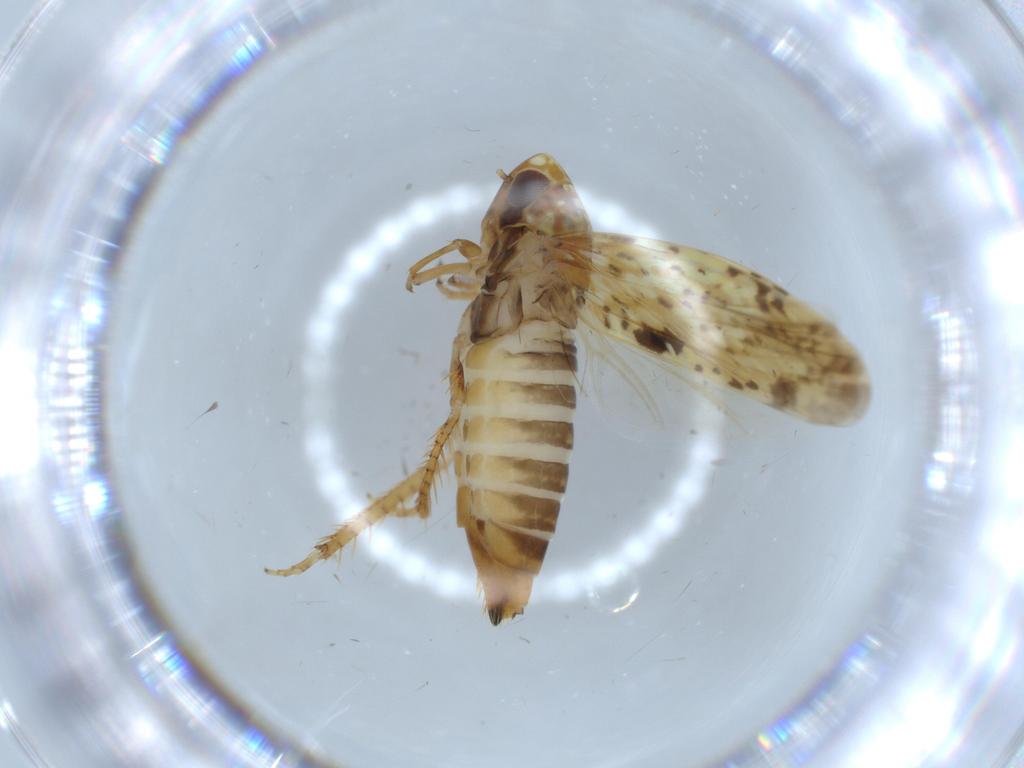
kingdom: Animalia
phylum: Arthropoda
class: Insecta
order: Hemiptera
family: Cicadellidae
